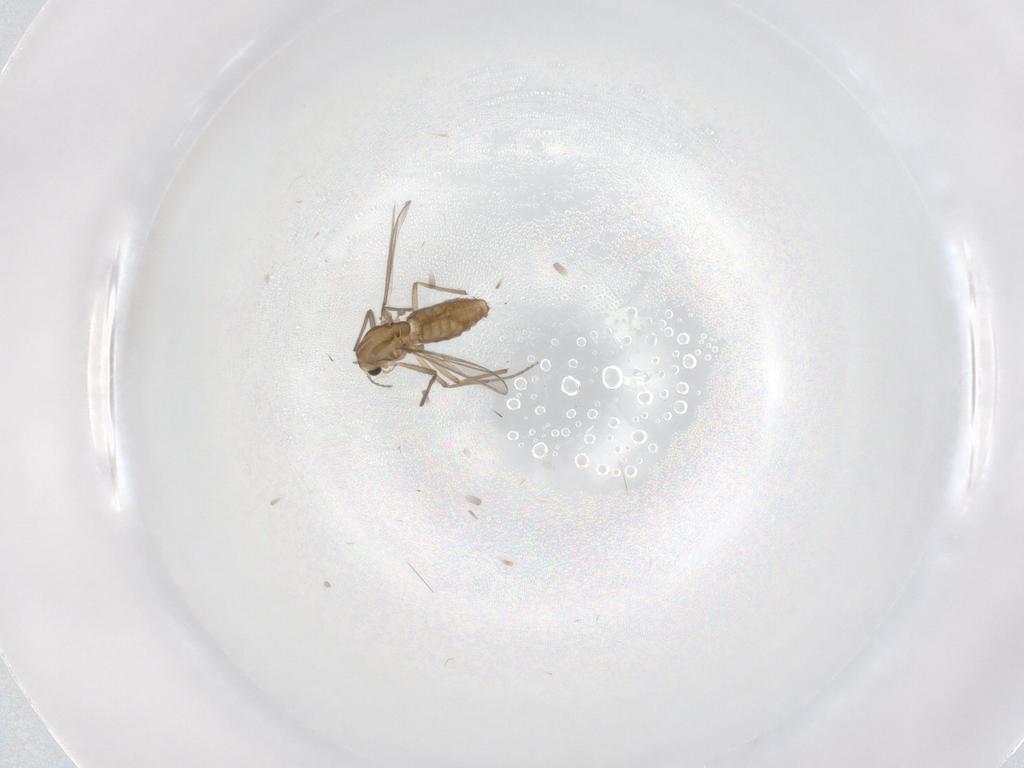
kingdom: Animalia
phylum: Arthropoda
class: Insecta
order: Diptera
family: Chironomidae
